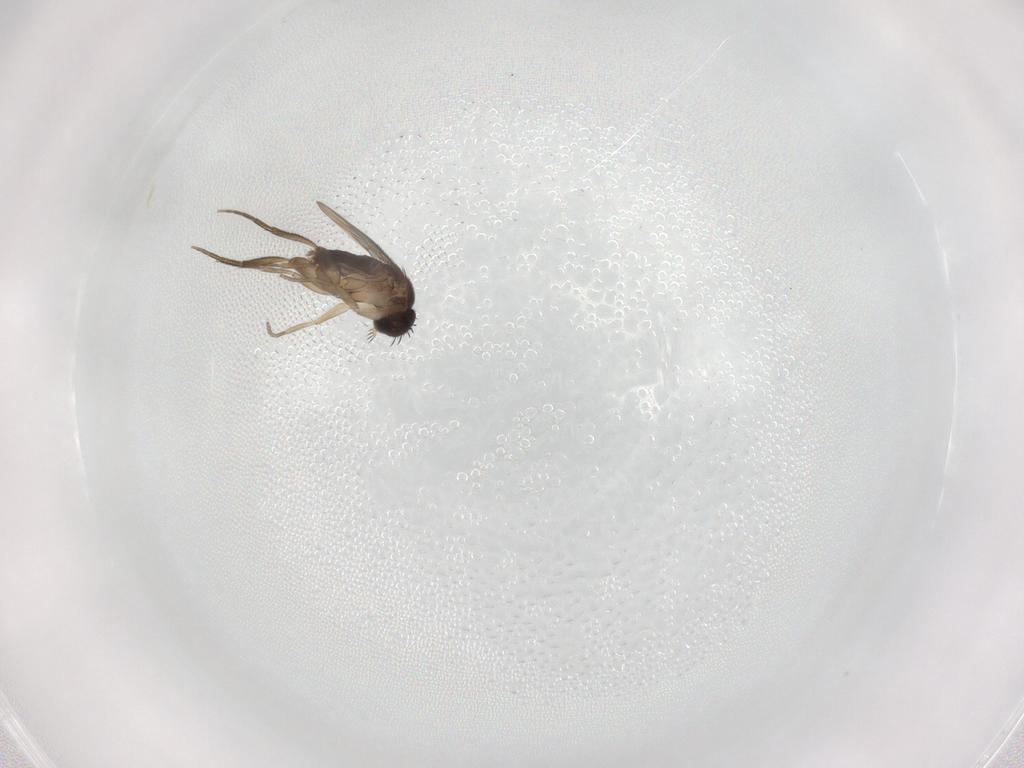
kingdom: Animalia
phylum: Arthropoda
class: Insecta
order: Diptera
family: Phoridae
